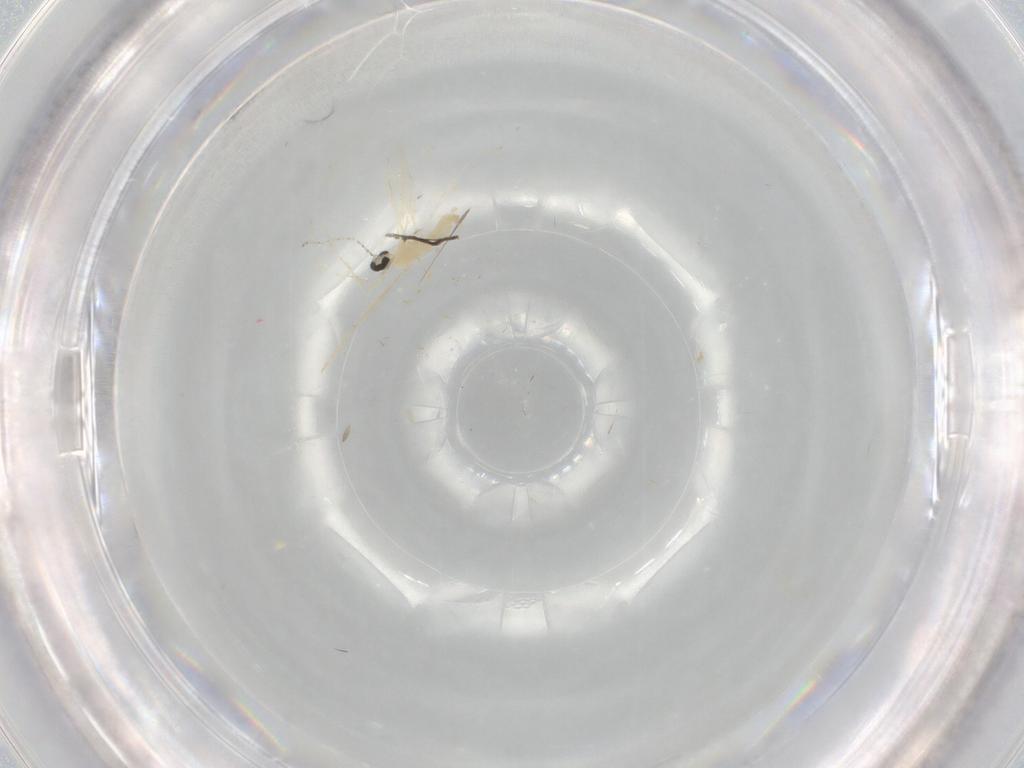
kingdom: Animalia
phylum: Arthropoda
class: Insecta
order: Diptera
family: Cecidomyiidae
